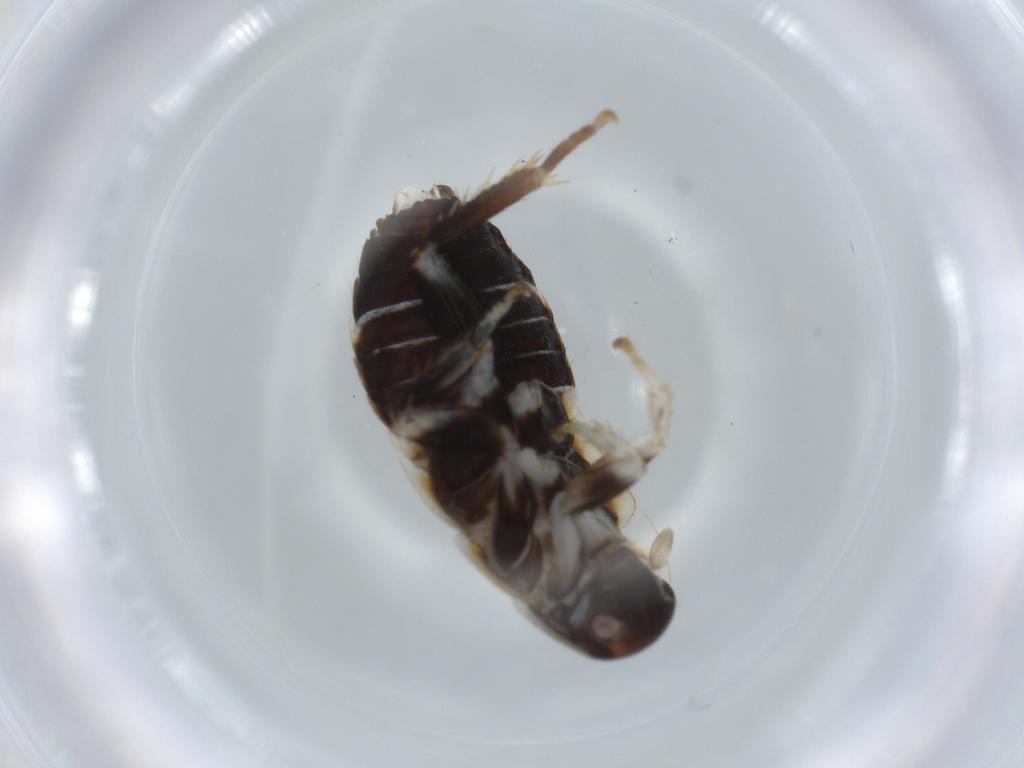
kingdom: Animalia
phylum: Arthropoda
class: Insecta
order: Blattodea
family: Ectobiidae
